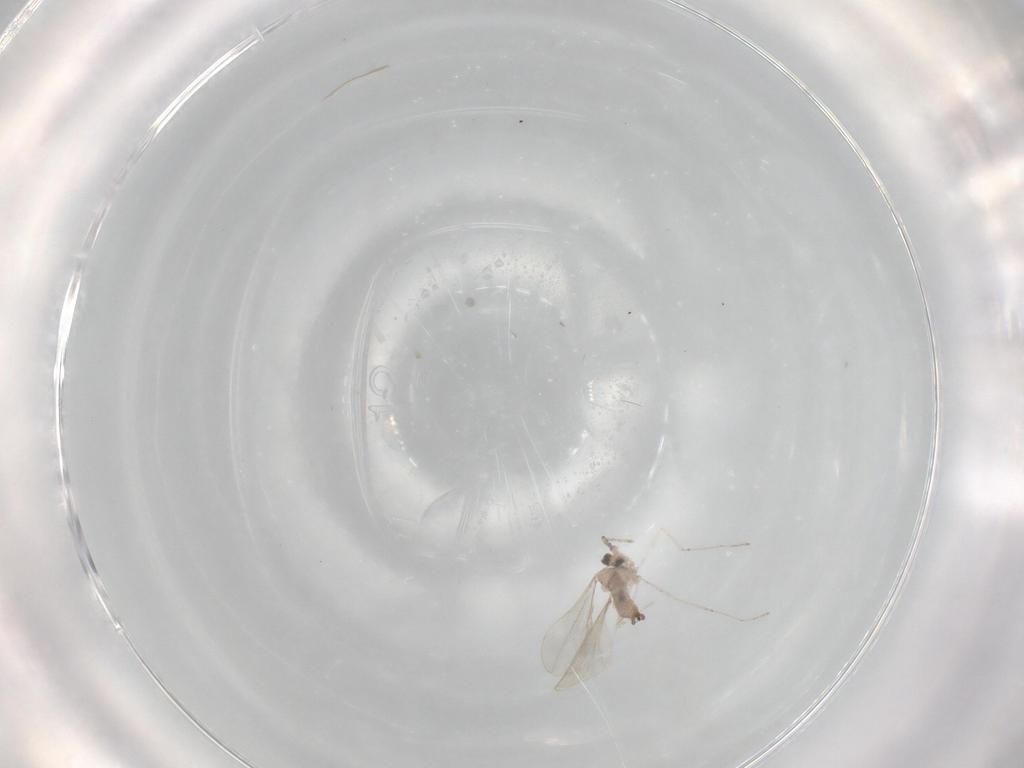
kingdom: Animalia
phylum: Arthropoda
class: Insecta
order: Diptera
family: Cecidomyiidae
